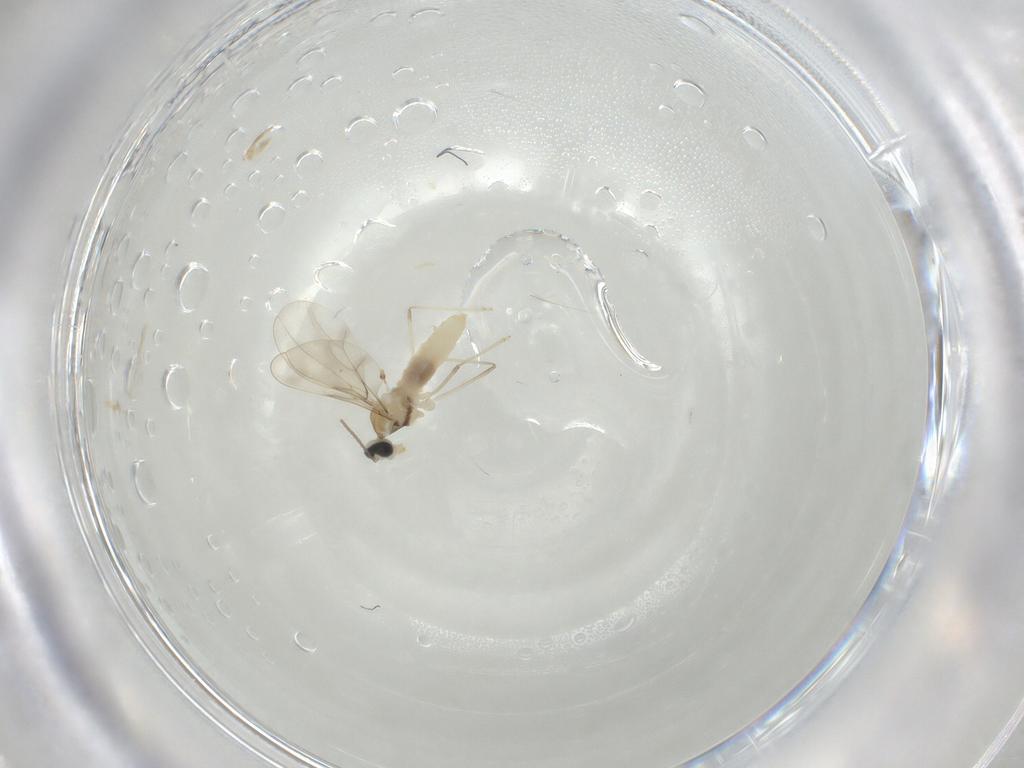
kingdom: Animalia
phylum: Arthropoda
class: Insecta
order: Diptera
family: Cecidomyiidae
